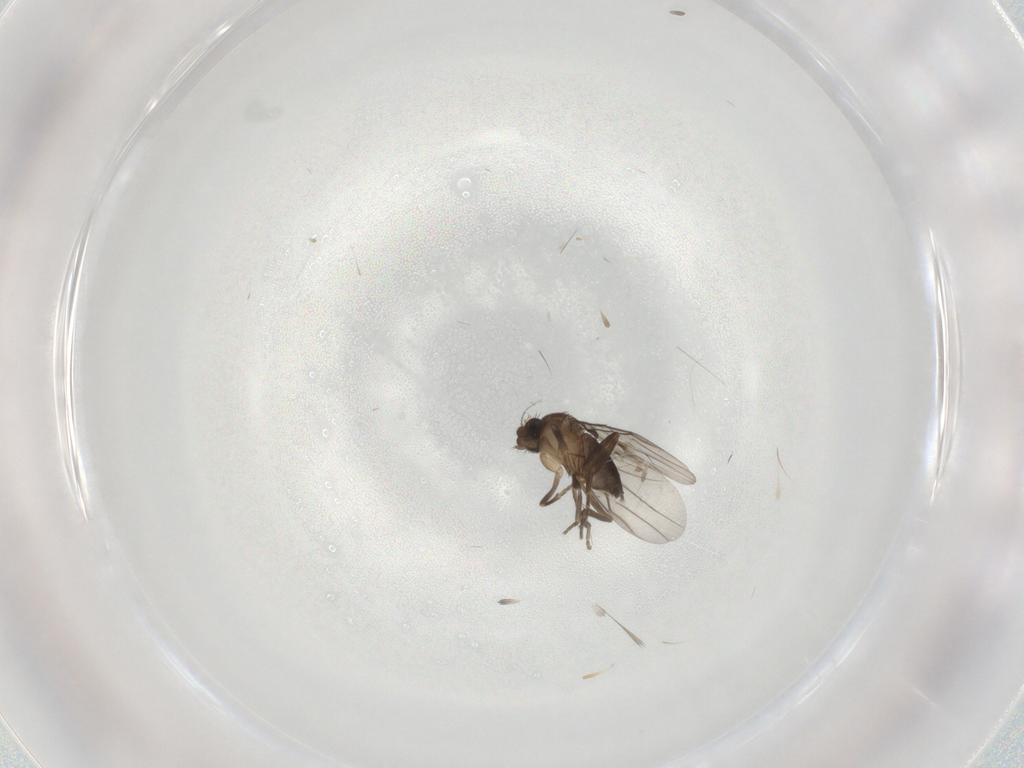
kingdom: Animalia
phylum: Arthropoda
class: Insecta
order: Diptera
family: Phoridae
